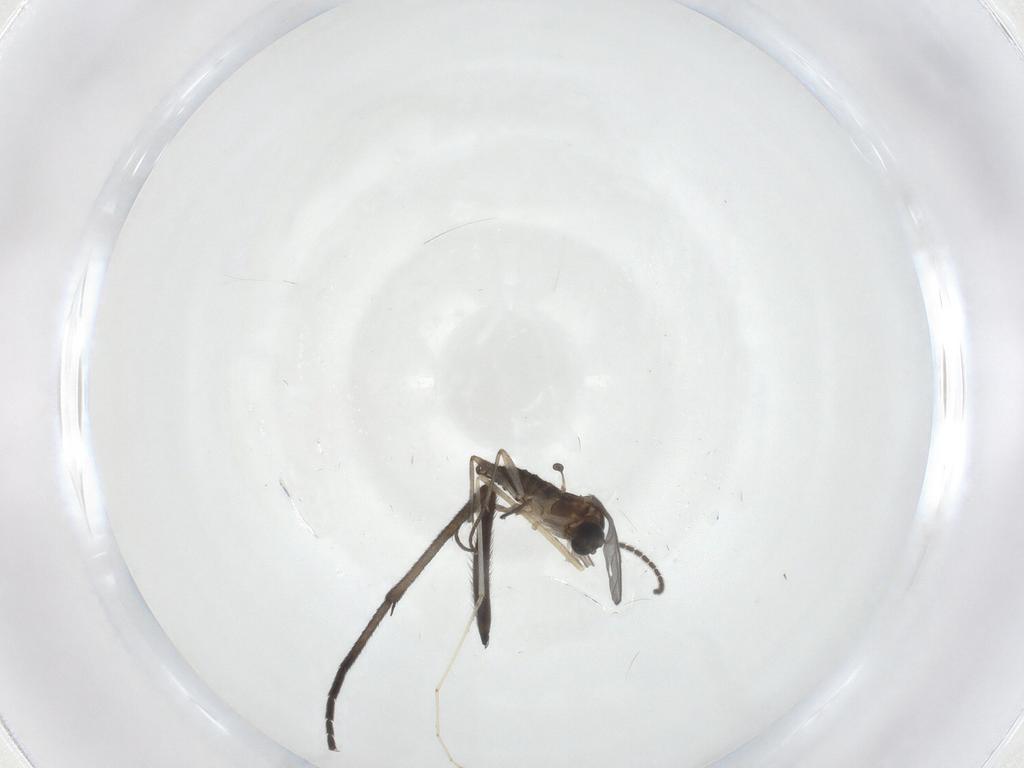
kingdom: Animalia
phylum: Arthropoda
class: Insecta
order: Diptera
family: Sciaridae
